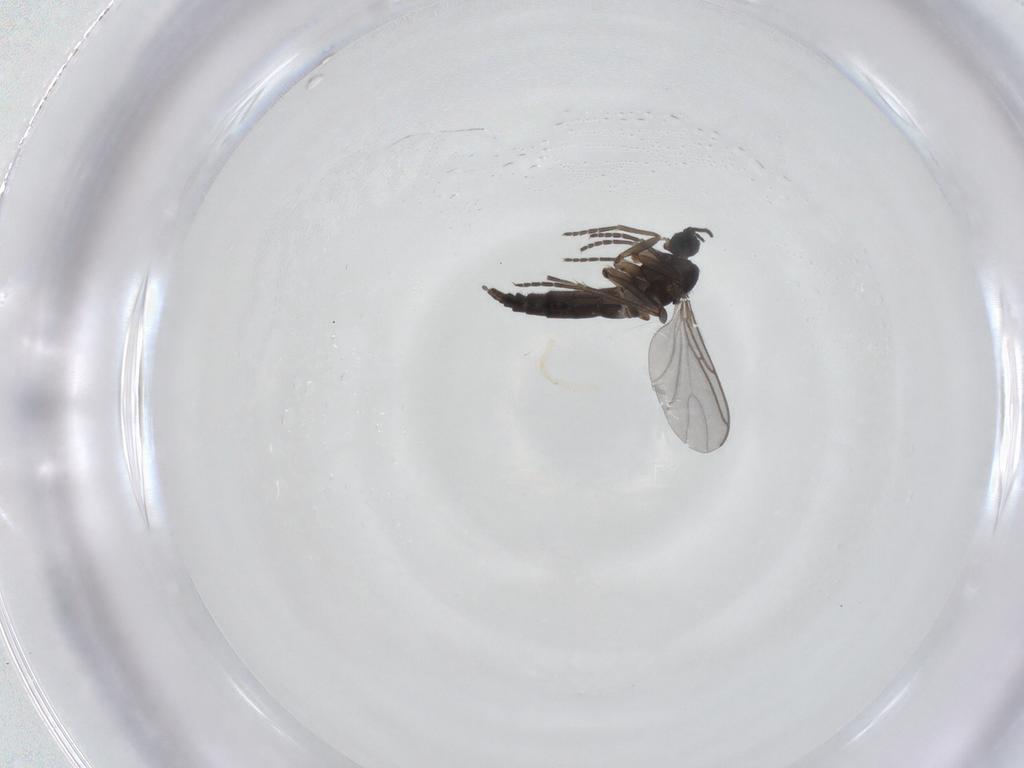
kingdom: Animalia
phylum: Arthropoda
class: Insecta
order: Diptera
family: Sciaridae
